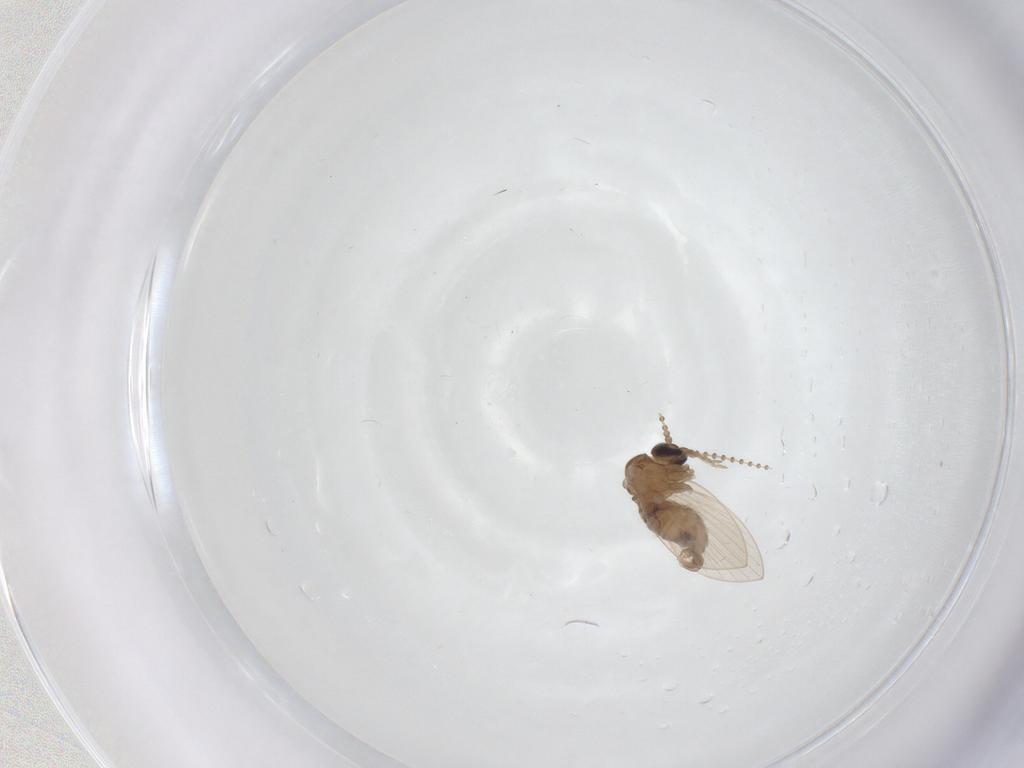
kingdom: Animalia
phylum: Arthropoda
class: Insecta
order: Diptera
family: Psychodidae
